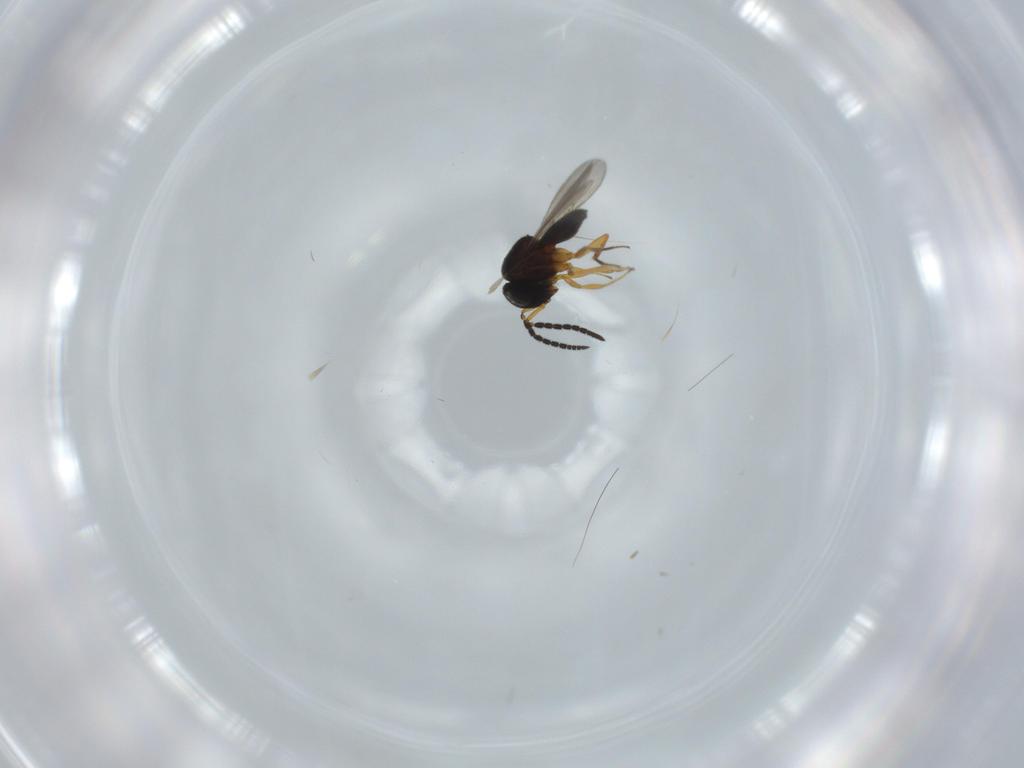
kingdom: Animalia
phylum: Arthropoda
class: Insecta
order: Coleoptera
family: Curculionidae
